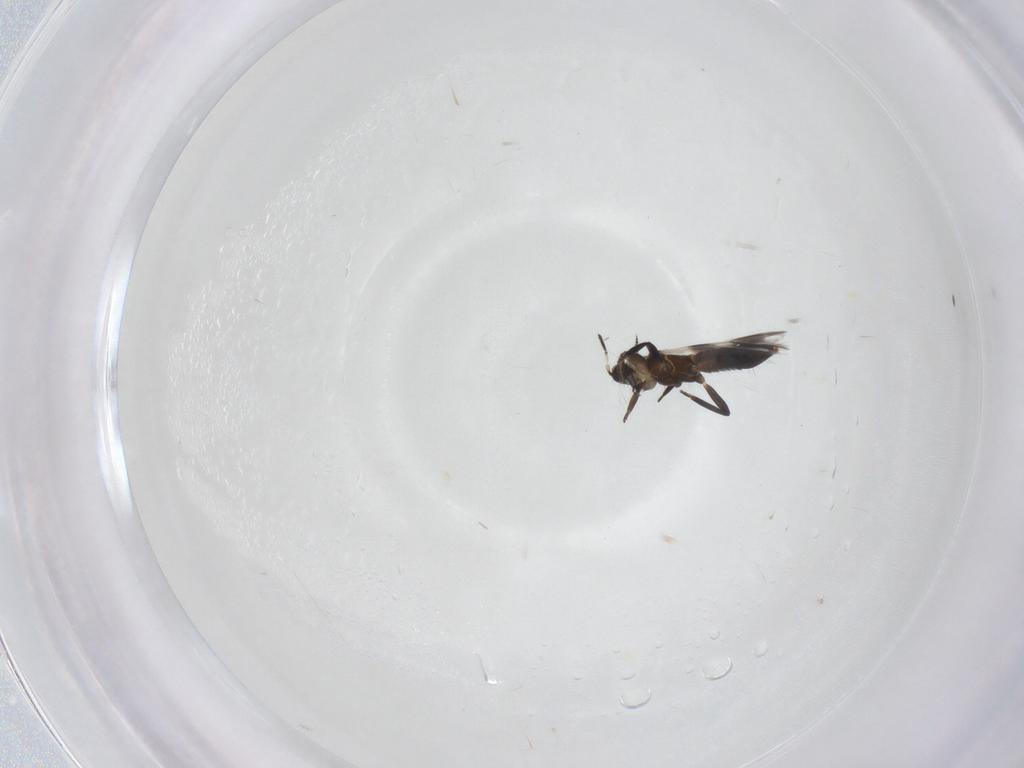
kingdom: Animalia
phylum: Arthropoda
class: Insecta
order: Thysanoptera
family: Aeolothripidae
